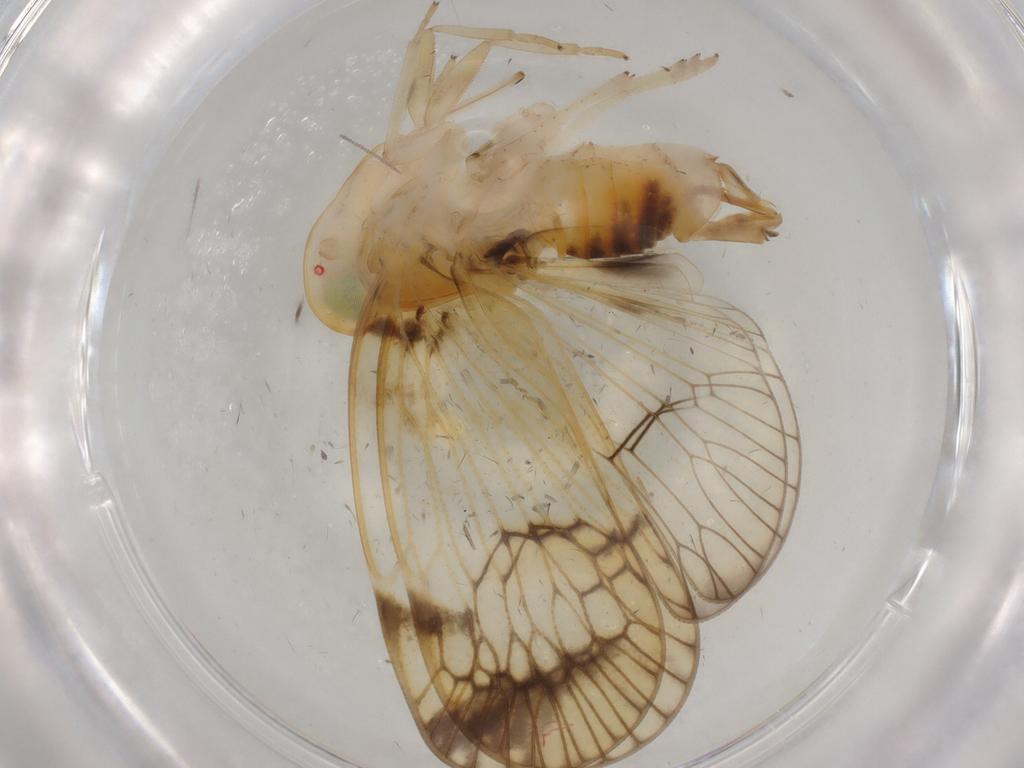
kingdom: Animalia
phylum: Arthropoda
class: Insecta
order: Hemiptera
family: Cixiidae
